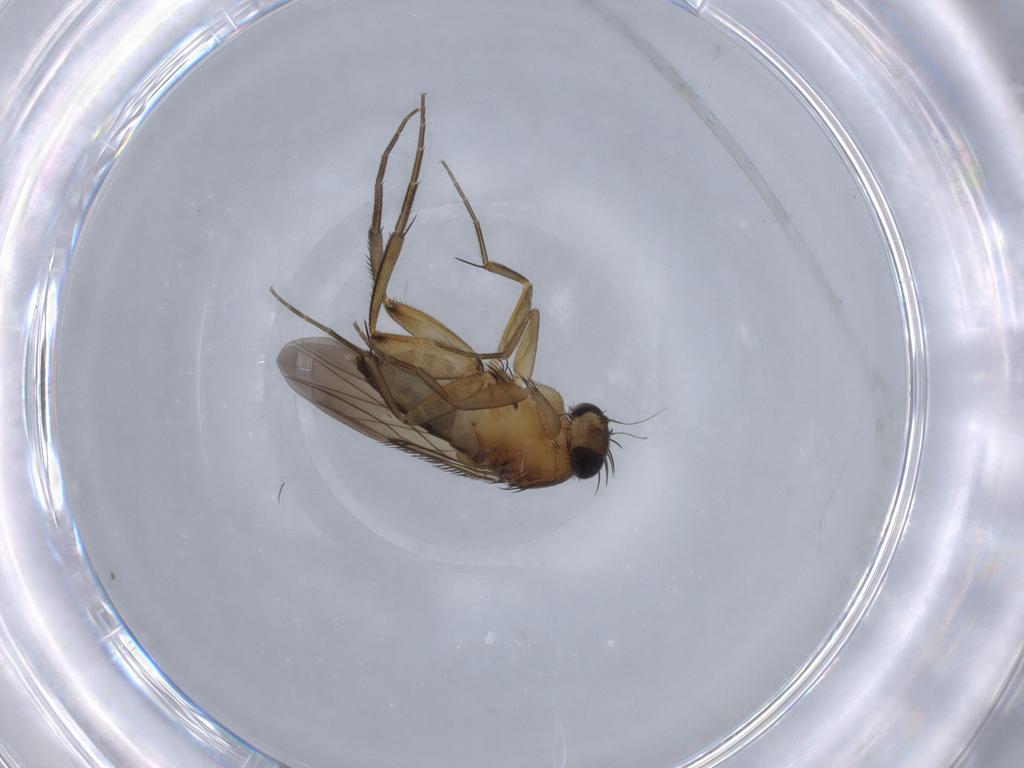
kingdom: Animalia
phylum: Arthropoda
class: Insecta
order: Diptera
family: Phoridae
